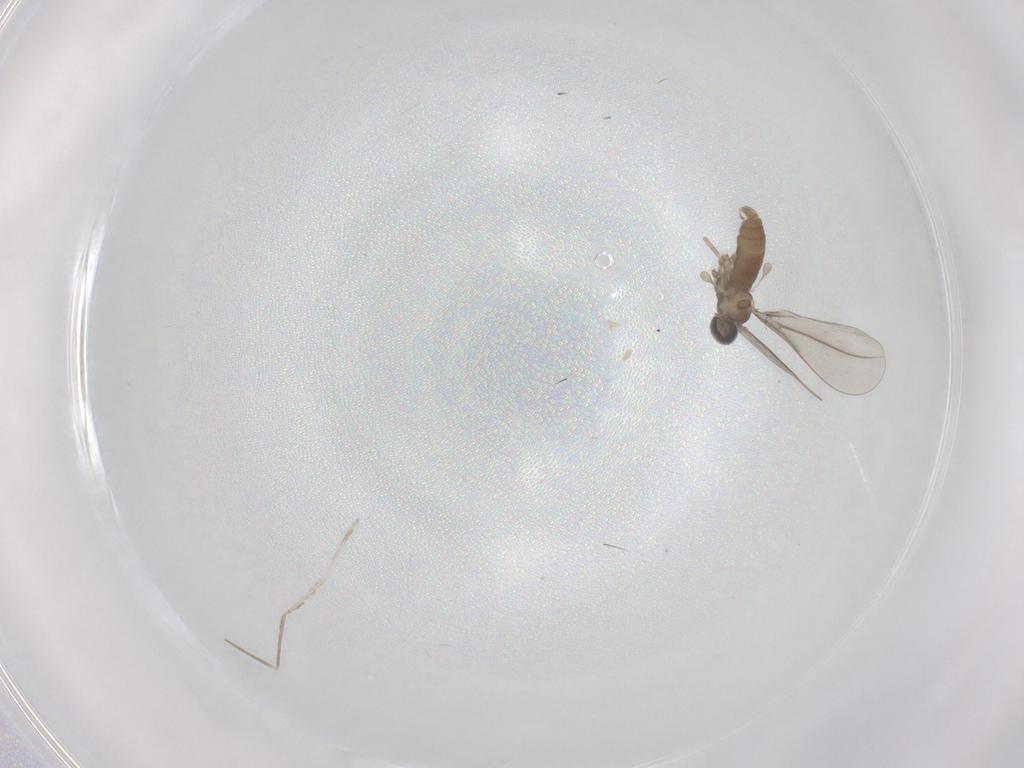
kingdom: Animalia
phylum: Arthropoda
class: Insecta
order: Diptera
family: Cecidomyiidae
